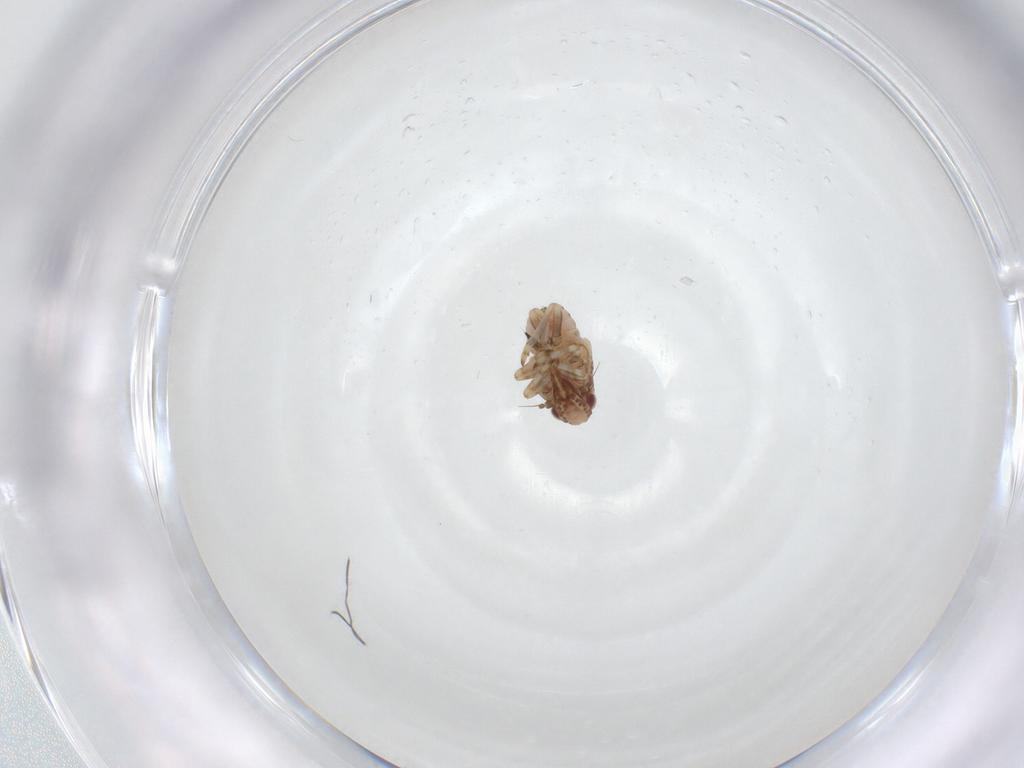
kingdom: Animalia
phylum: Arthropoda
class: Insecta
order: Hemiptera
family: Tropiduchidae
